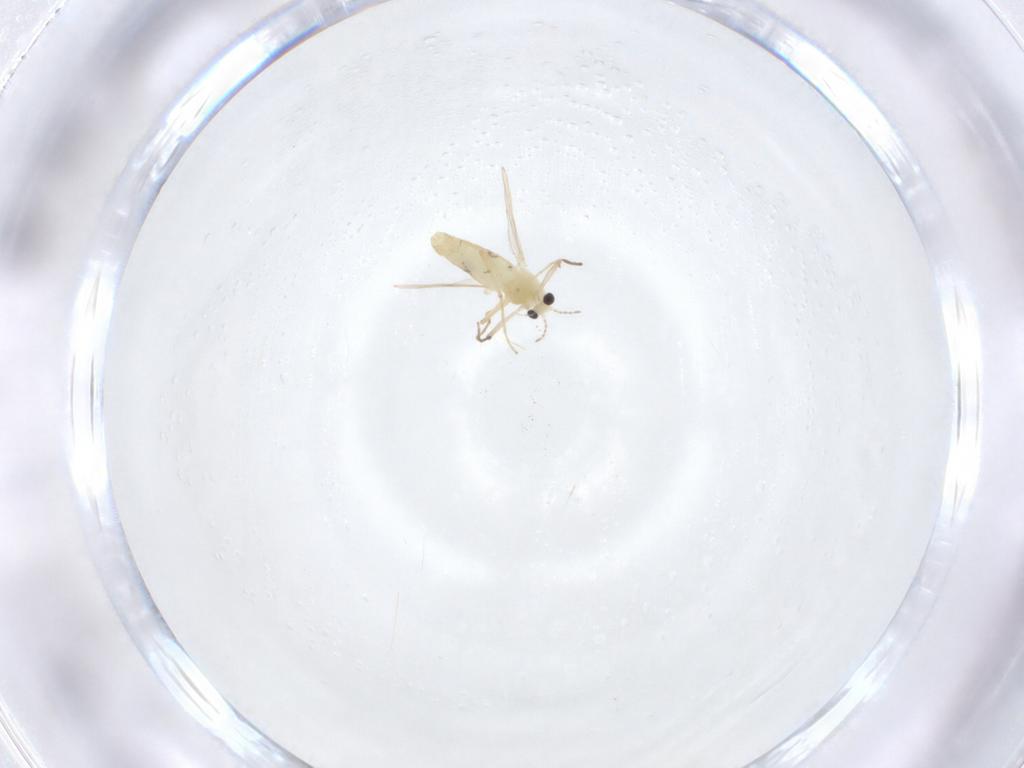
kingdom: Animalia
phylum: Arthropoda
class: Insecta
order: Diptera
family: Chironomidae
